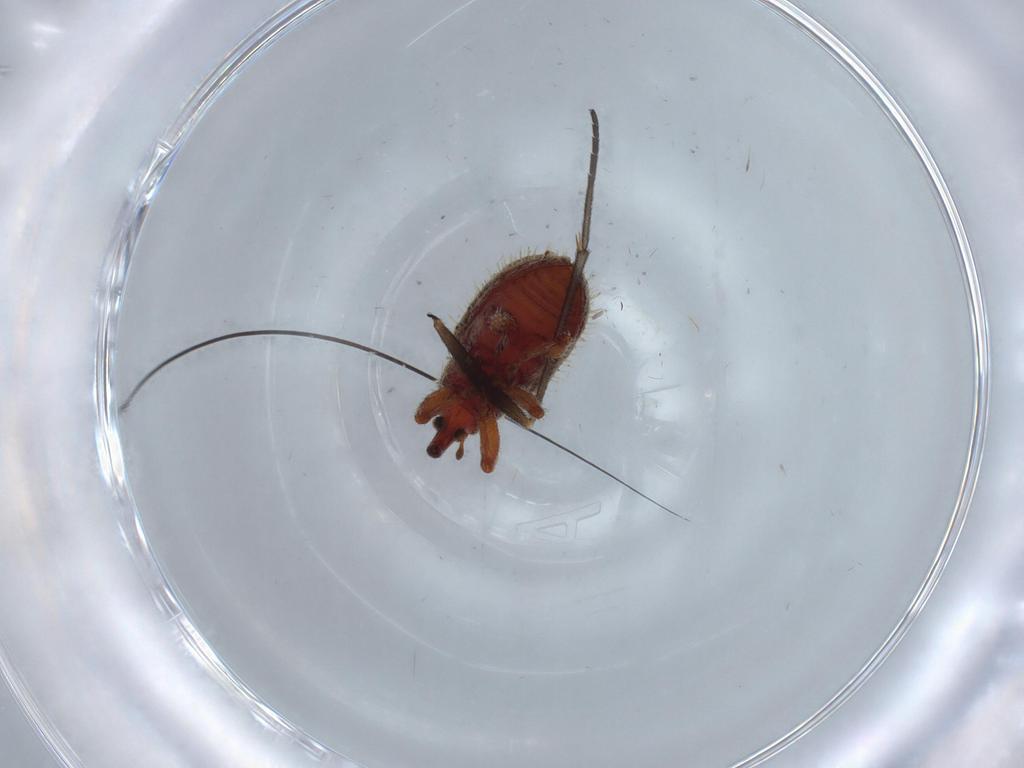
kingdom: Animalia
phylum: Arthropoda
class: Insecta
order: Coleoptera
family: Curculionidae
